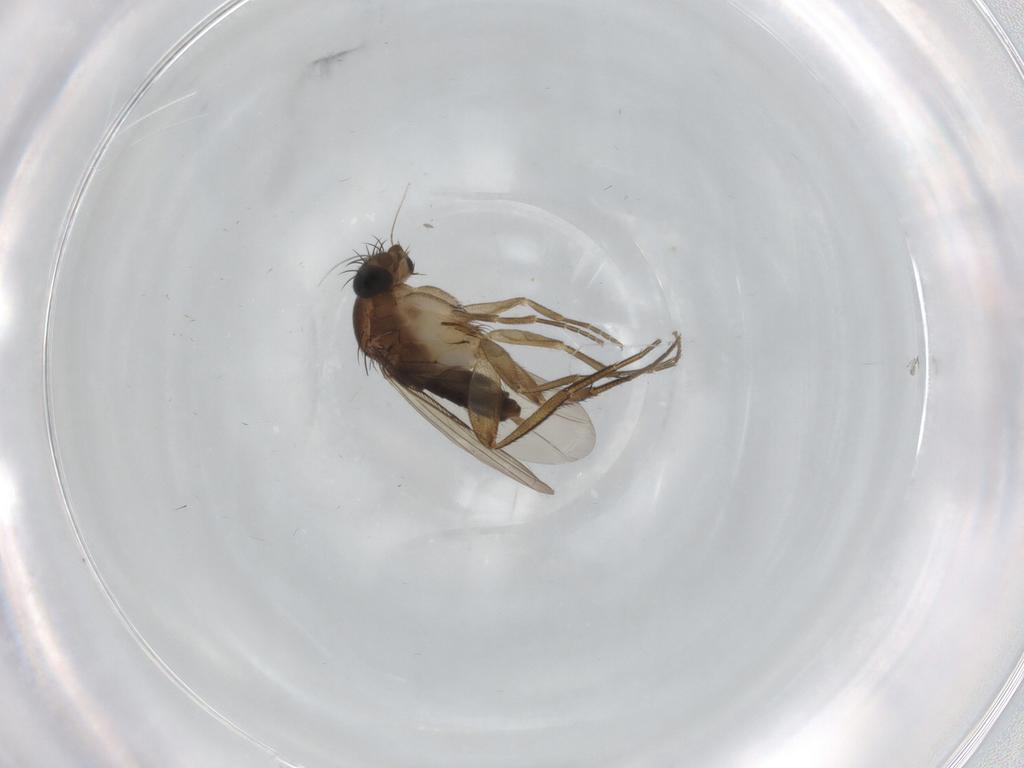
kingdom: Animalia
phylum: Arthropoda
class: Insecta
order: Diptera
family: Phoridae
